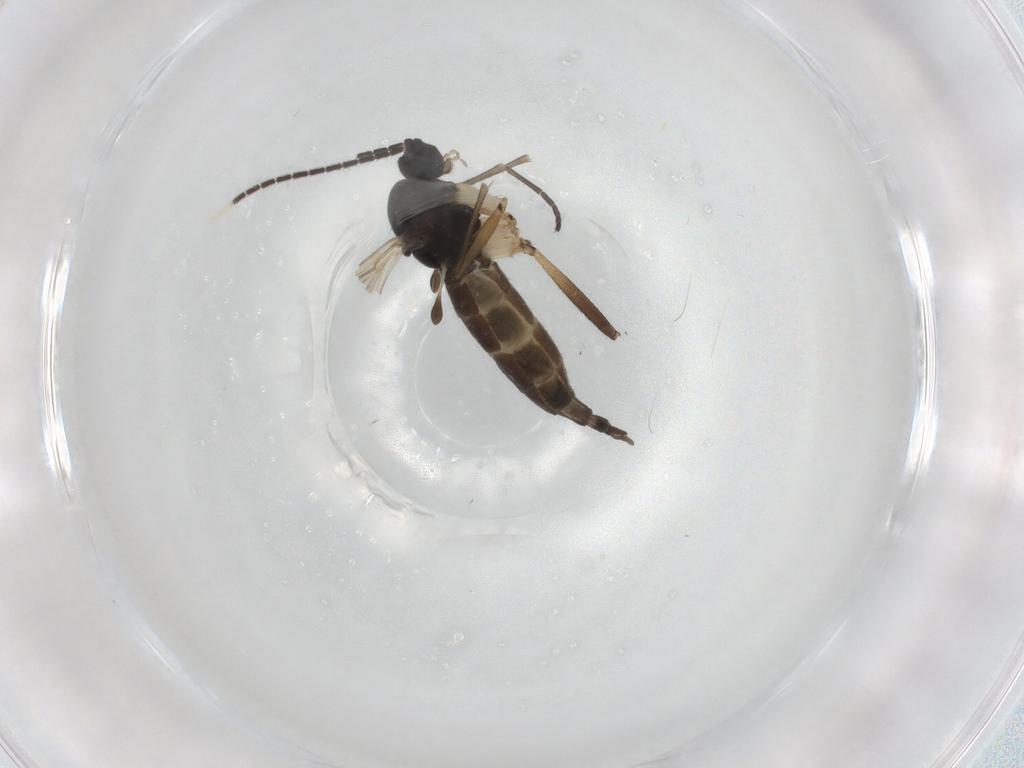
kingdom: Animalia
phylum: Arthropoda
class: Insecta
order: Diptera
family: Sciaridae
